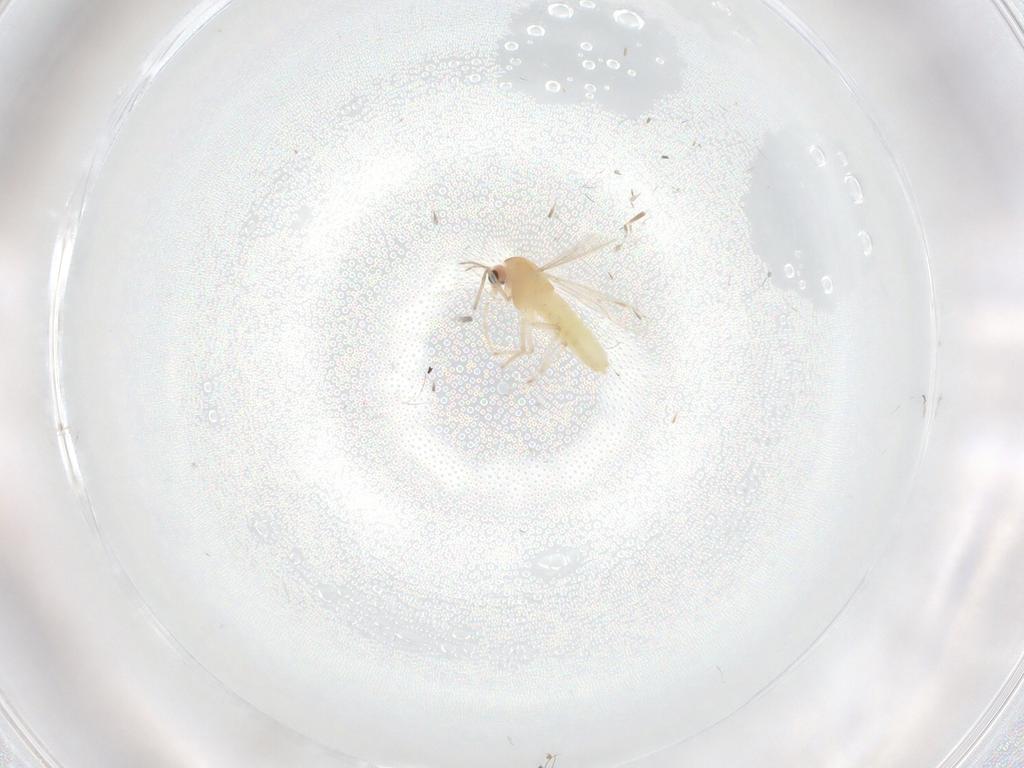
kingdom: Animalia
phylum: Arthropoda
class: Insecta
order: Diptera
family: Chironomidae
